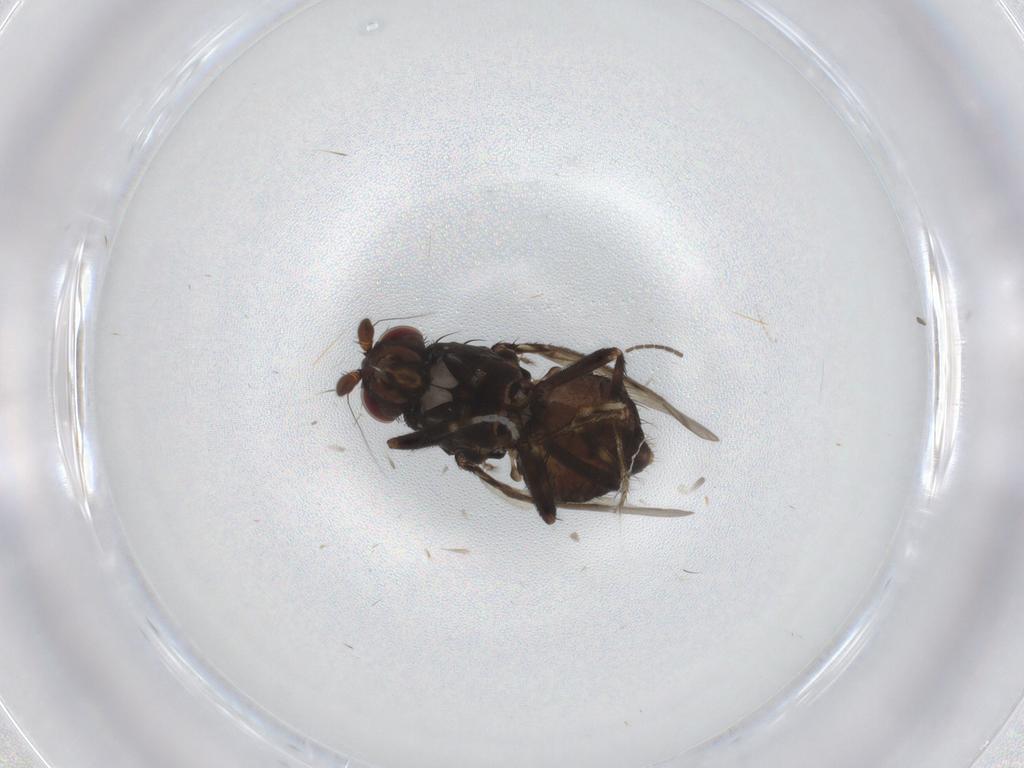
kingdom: Animalia
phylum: Arthropoda
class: Insecta
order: Diptera
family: Sphaeroceridae
